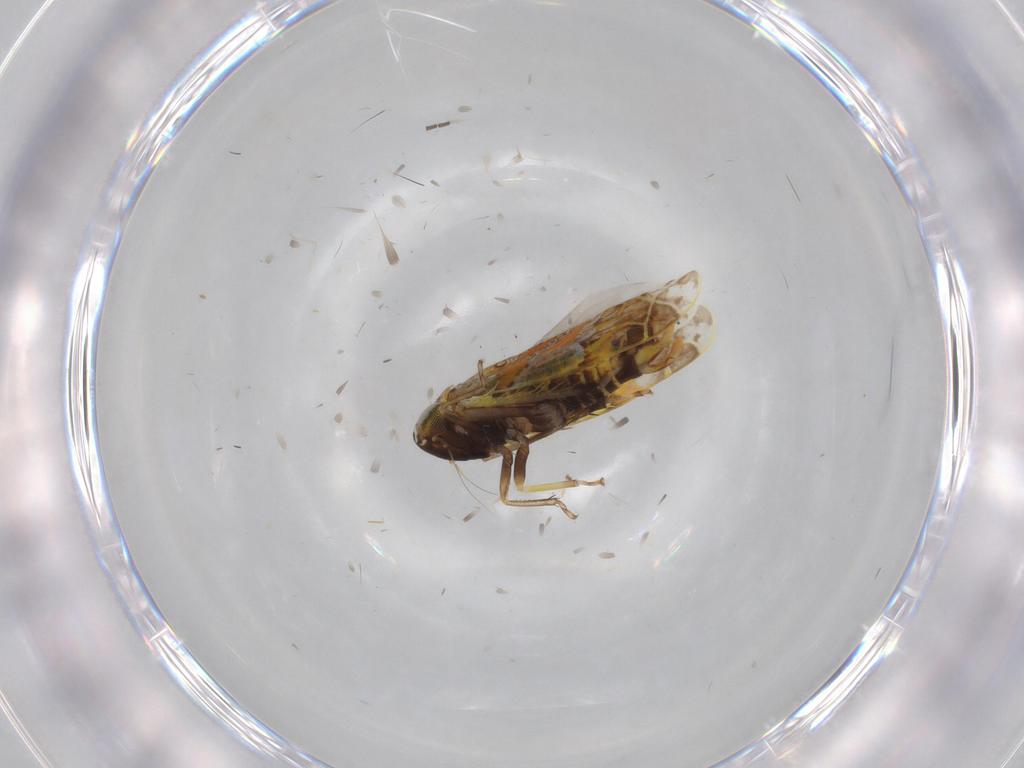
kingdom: Animalia
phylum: Arthropoda
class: Insecta
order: Hemiptera
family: Cicadellidae
